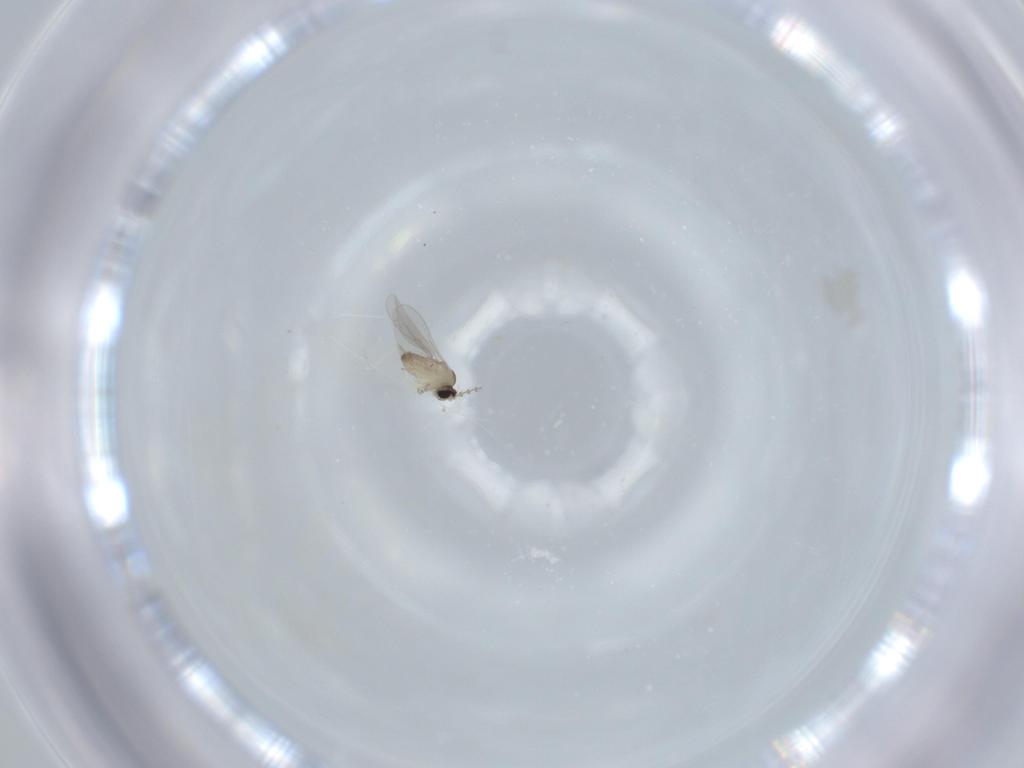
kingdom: Animalia
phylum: Arthropoda
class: Insecta
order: Diptera
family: Cecidomyiidae
